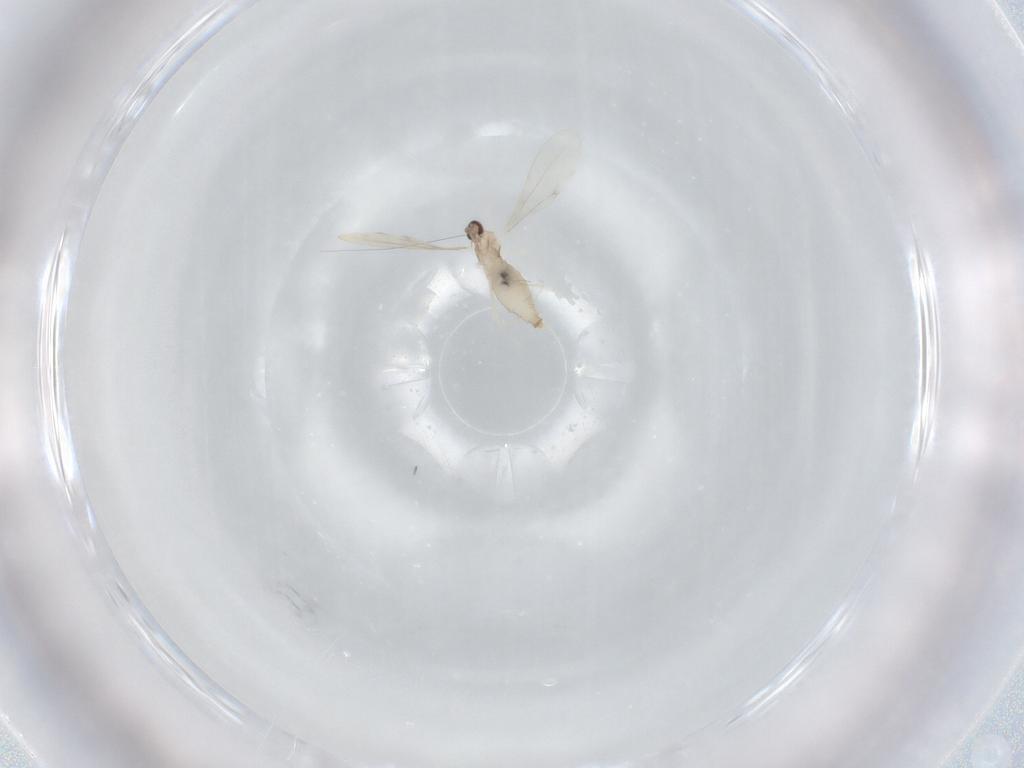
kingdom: Animalia
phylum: Arthropoda
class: Insecta
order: Diptera
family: Cecidomyiidae
